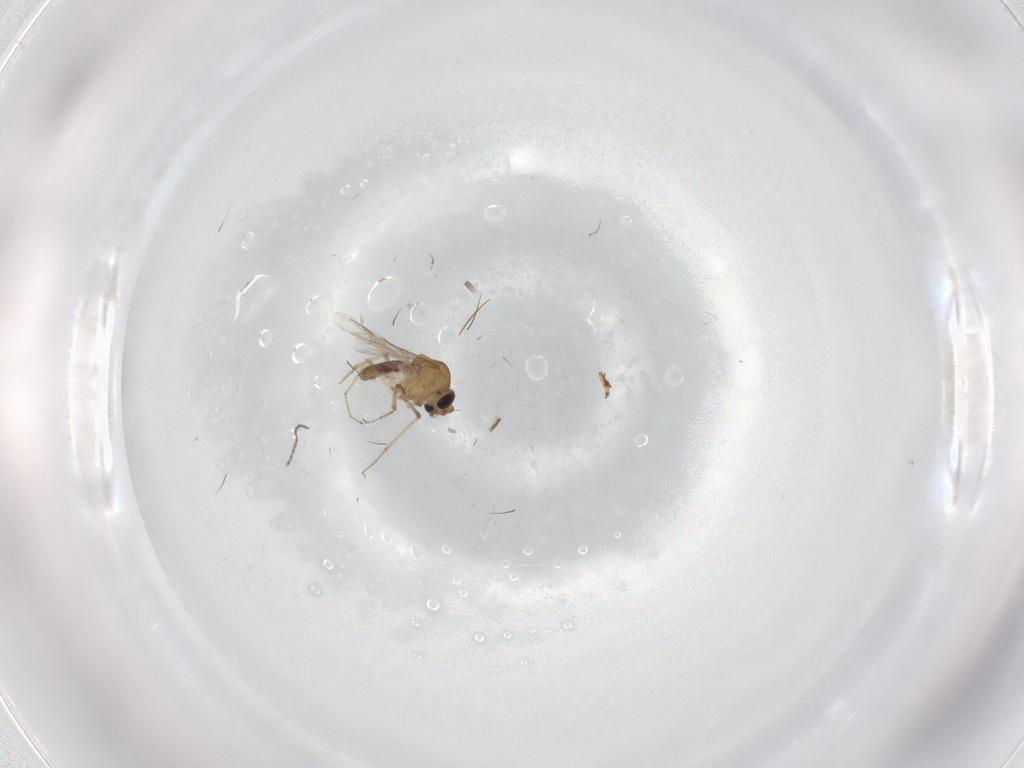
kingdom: Animalia
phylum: Arthropoda
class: Insecta
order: Diptera
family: Cecidomyiidae
